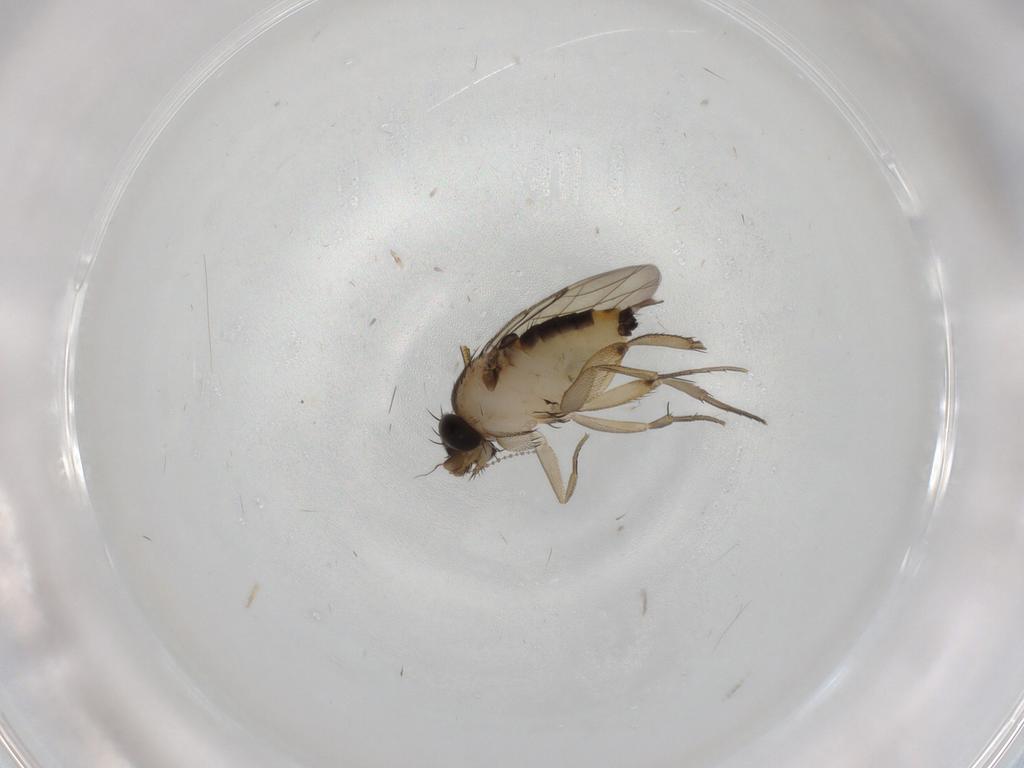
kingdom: Animalia
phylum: Arthropoda
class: Insecta
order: Diptera
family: Phoridae
